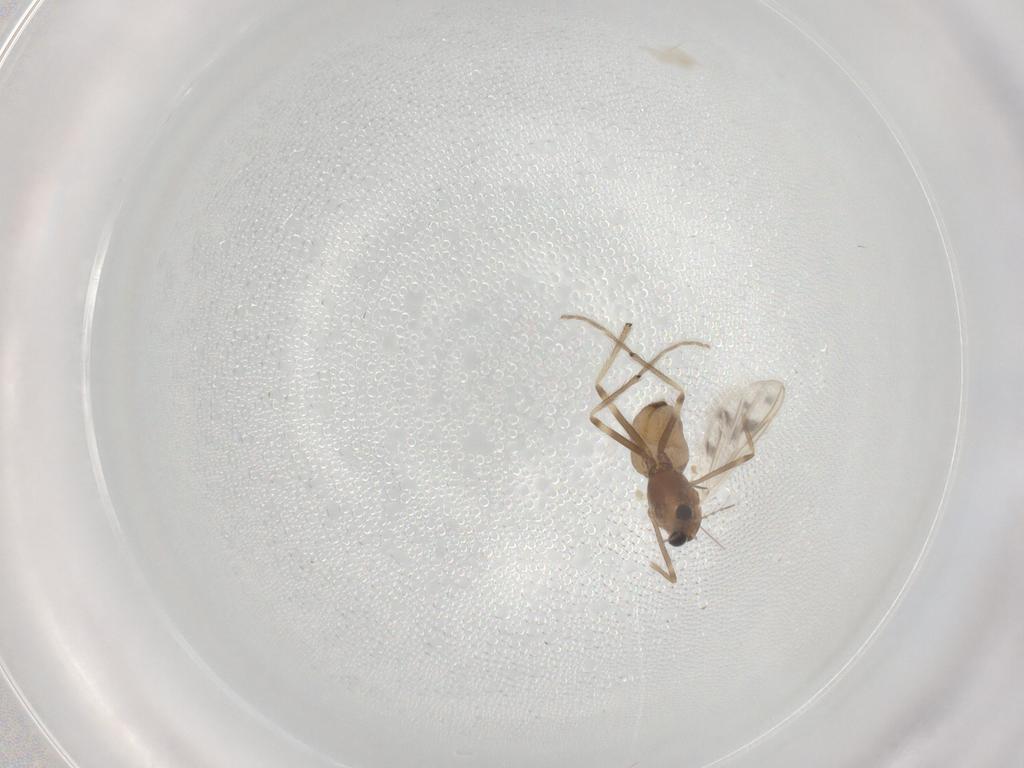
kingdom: Animalia
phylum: Arthropoda
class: Insecta
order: Diptera
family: Chironomidae
